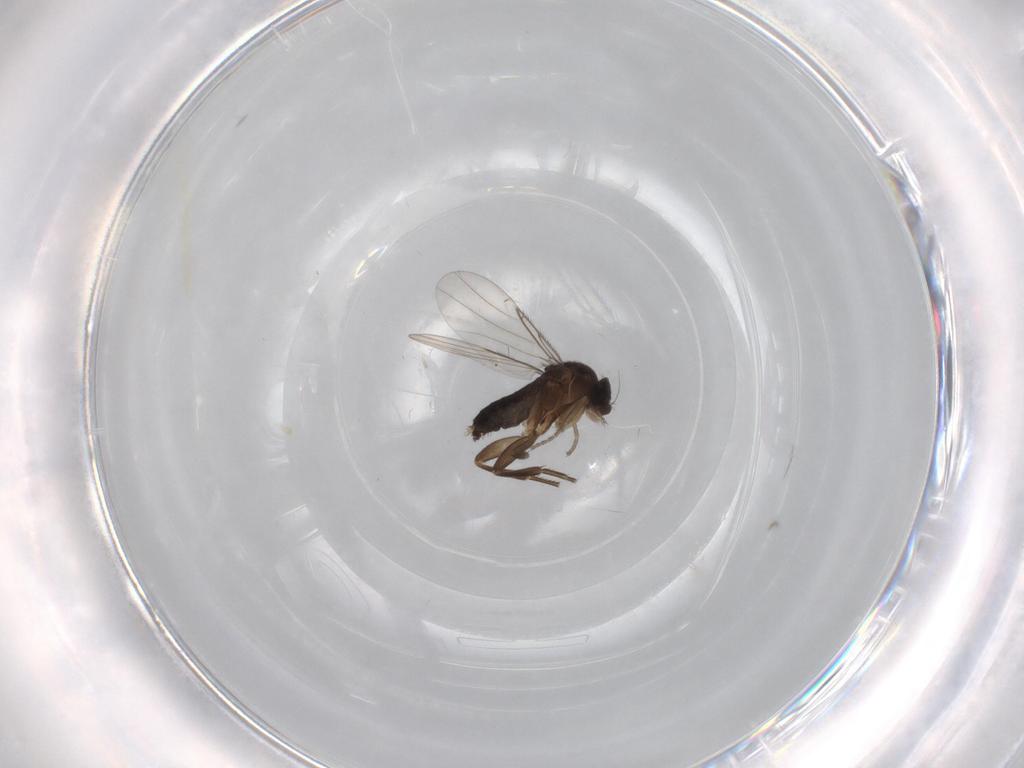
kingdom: Animalia
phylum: Arthropoda
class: Insecta
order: Diptera
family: Phoridae
